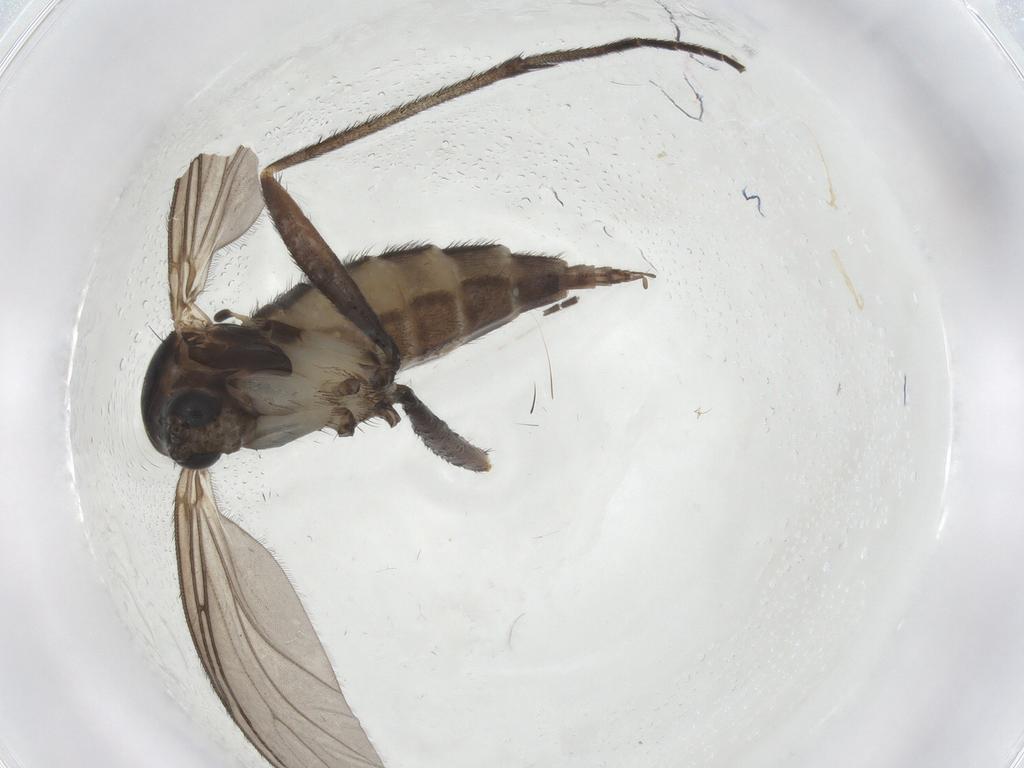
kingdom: Animalia
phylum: Arthropoda
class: Insecta
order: Diptera
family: Sciaridae
